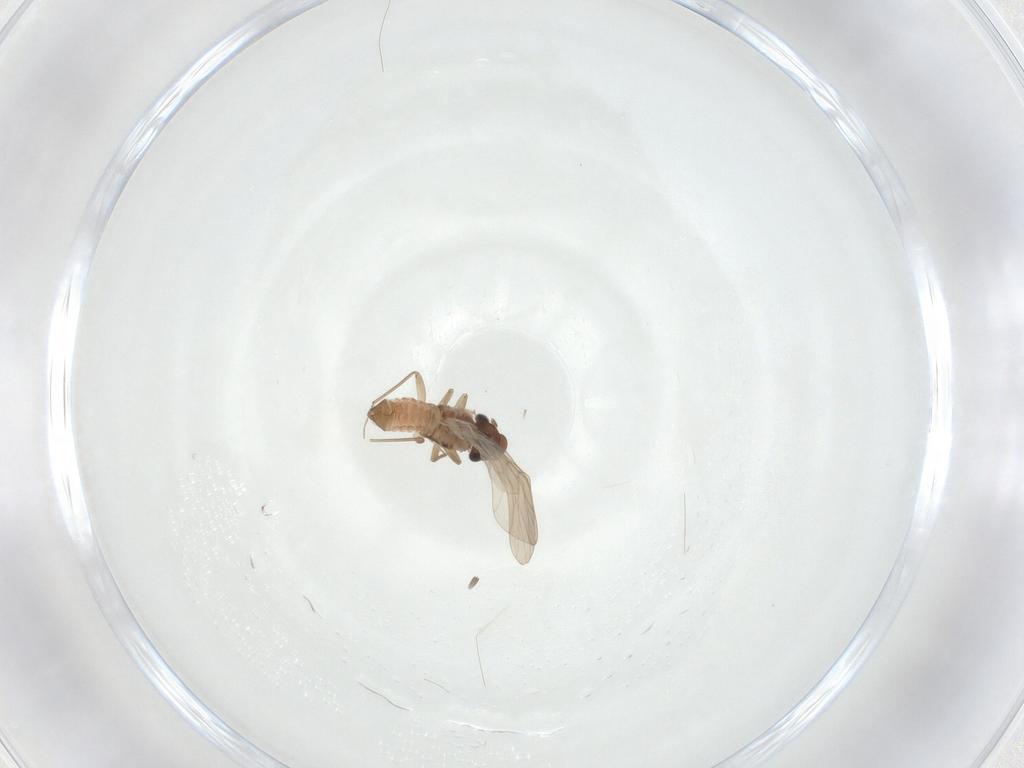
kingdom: Animalia
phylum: Arthropoda
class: Insecta
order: Psocodea
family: Lepidopsocidae
